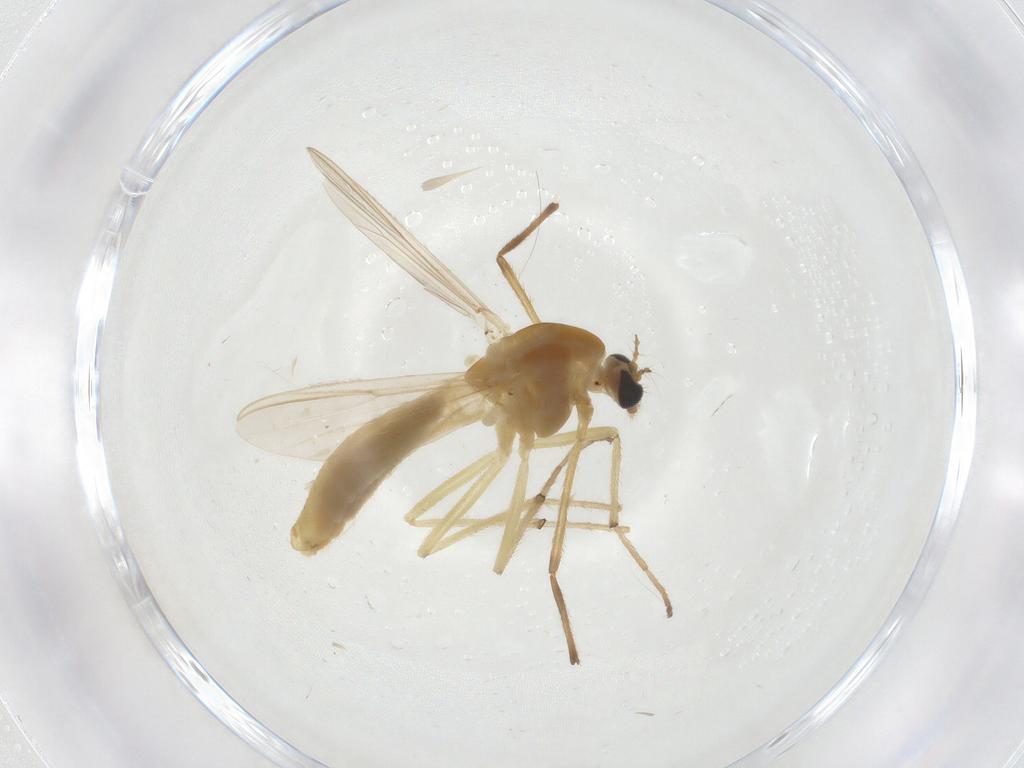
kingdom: Animalia
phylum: Arthropoda
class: Insecta
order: Diptera
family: Chironomidae
